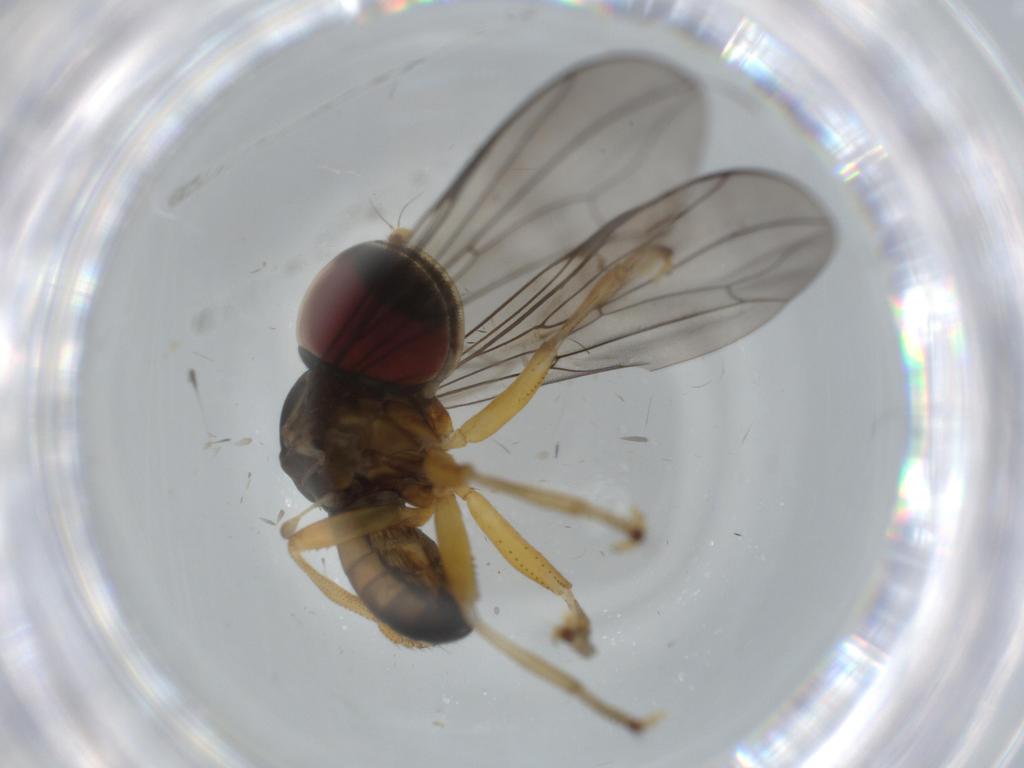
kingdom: Animalia
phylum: Arthropoda
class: Insecta
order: Diptera
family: Pipunculidae
